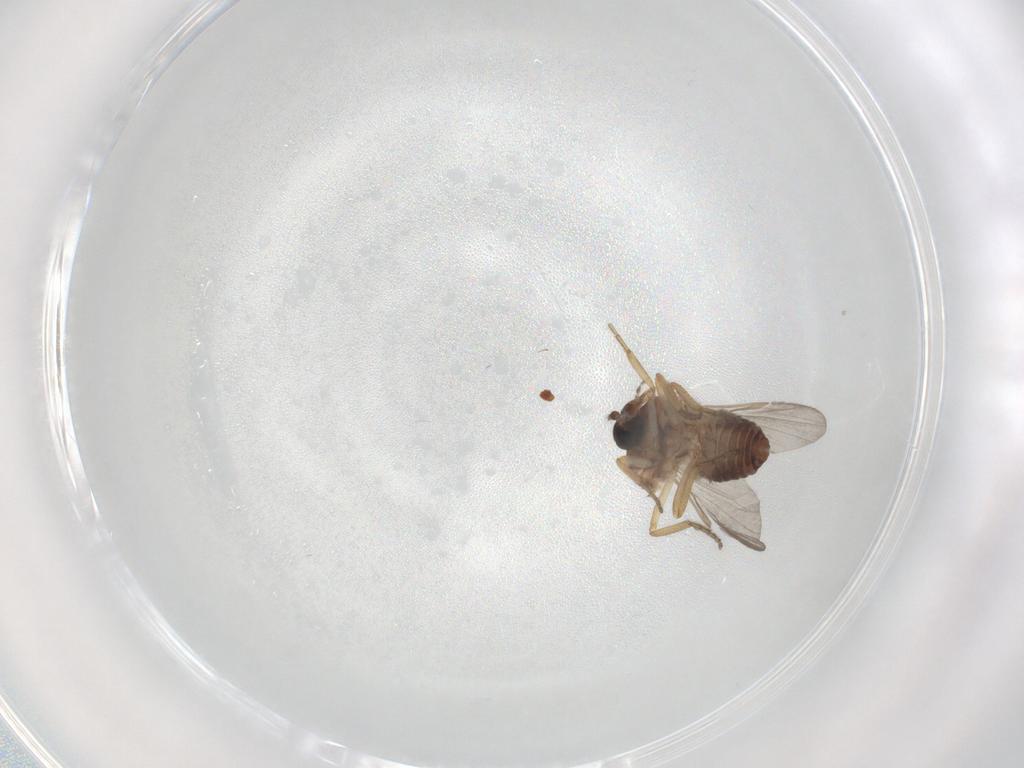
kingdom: Animalia
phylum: Arthropoda
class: Insecta
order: Diptera
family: Ceratopogonidae
